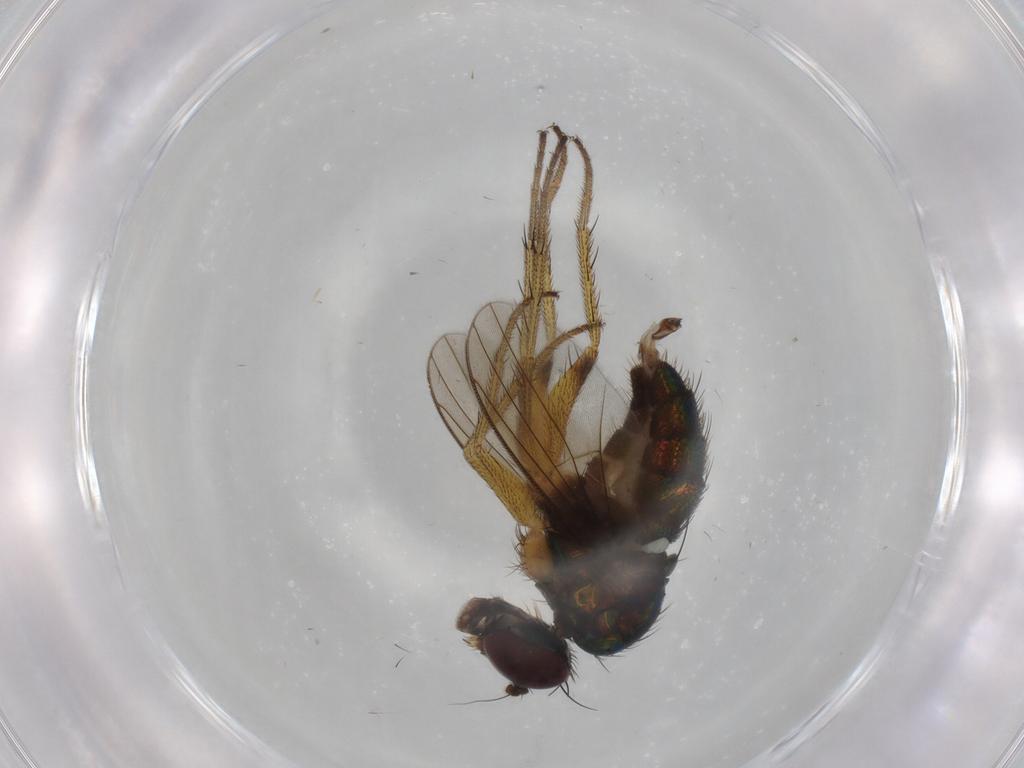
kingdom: Animalia
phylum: Arthropoda
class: Insecta
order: Diptera
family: Dolichopodidae
